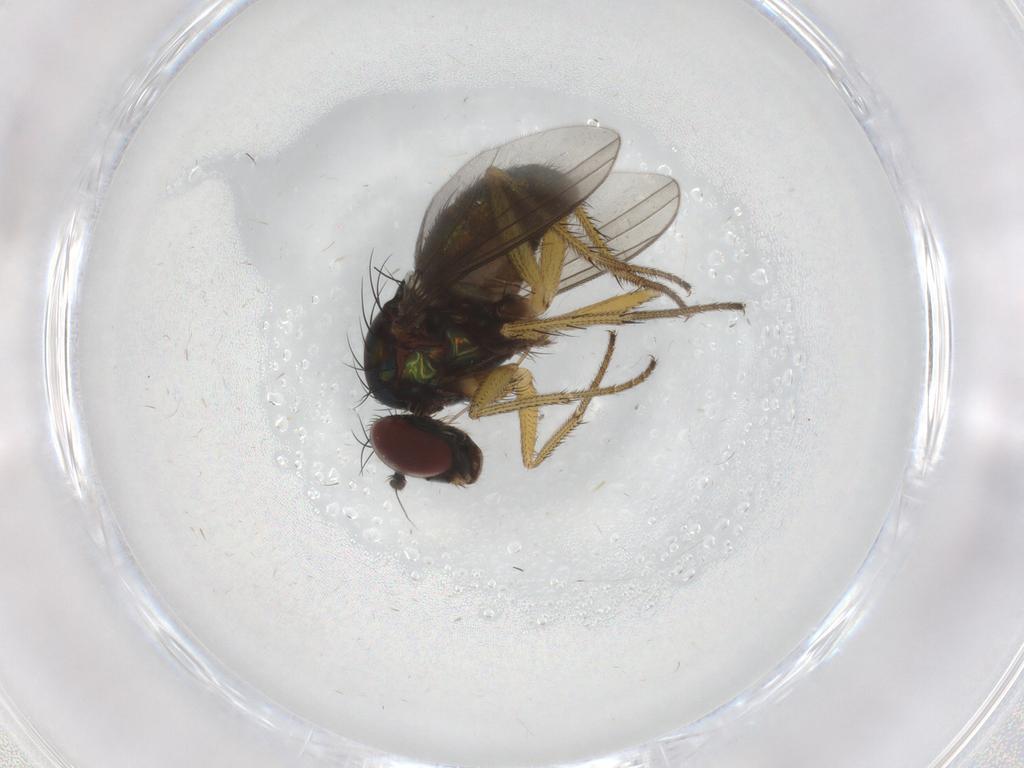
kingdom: Animalia
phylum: Arthropoda
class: Insecta
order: Diptera
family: Dolichopodidae
